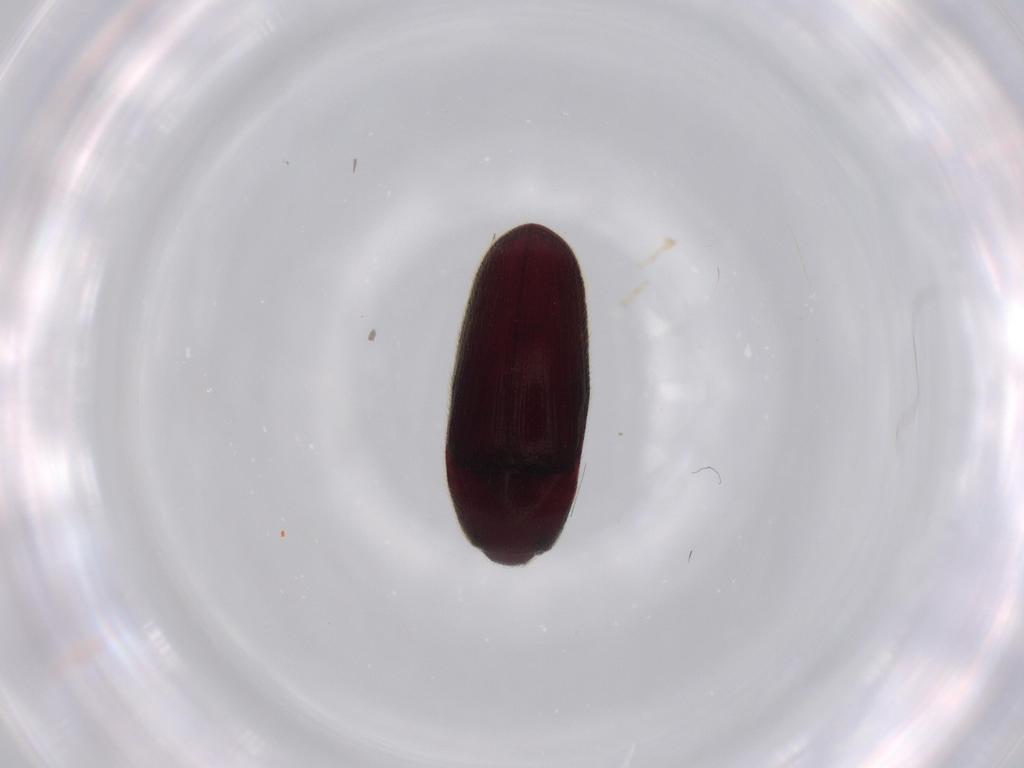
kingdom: Animalia
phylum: Arthropoda
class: Insecta
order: Coleoptera
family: Throscidae
